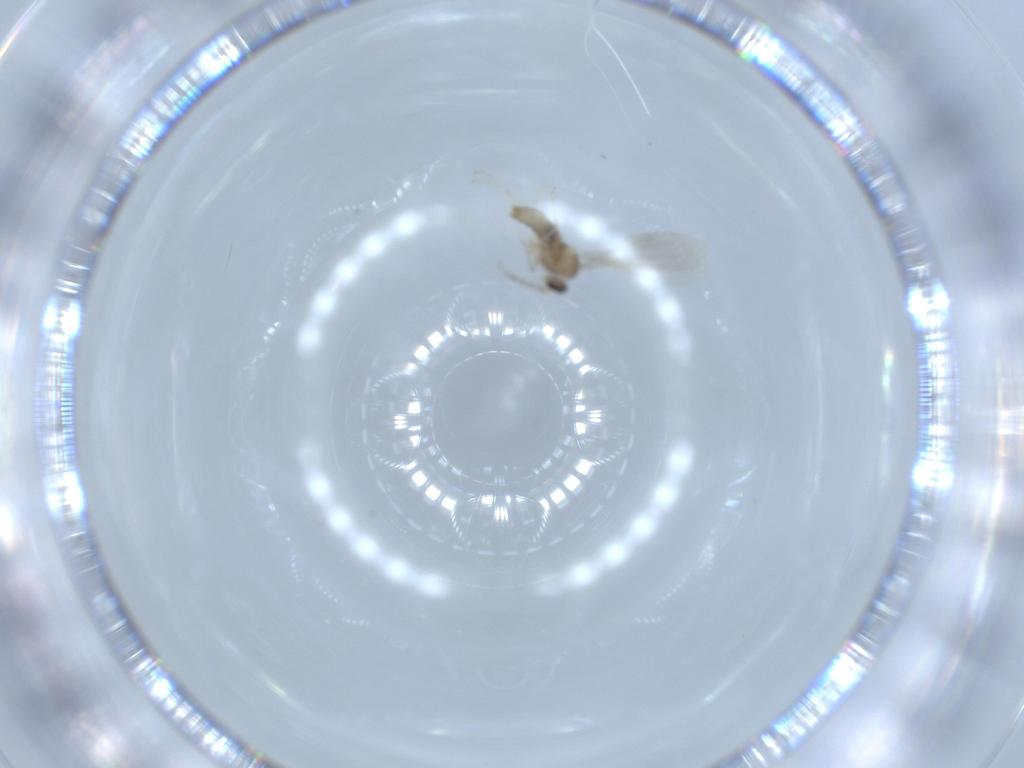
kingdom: Animalia
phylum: Arthropoda
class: Insecta
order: Diptera
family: Cecidomyiidae
